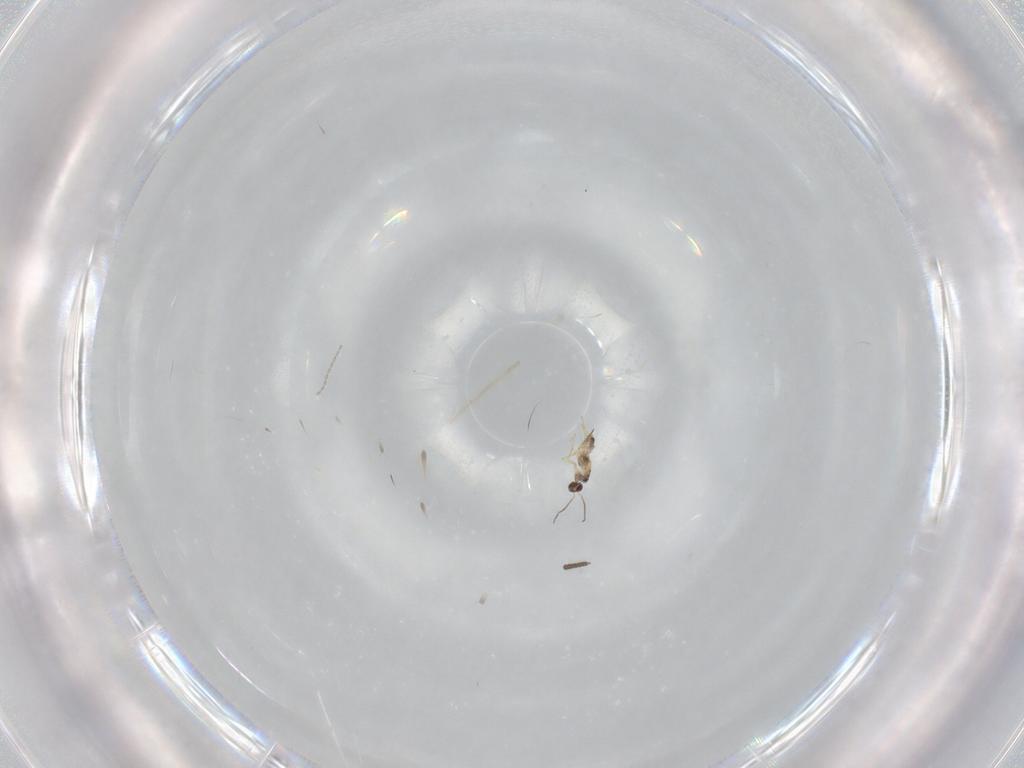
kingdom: Animalia
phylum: Arthropoda
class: Insecta
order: Hymenoptera
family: Mymaridae
